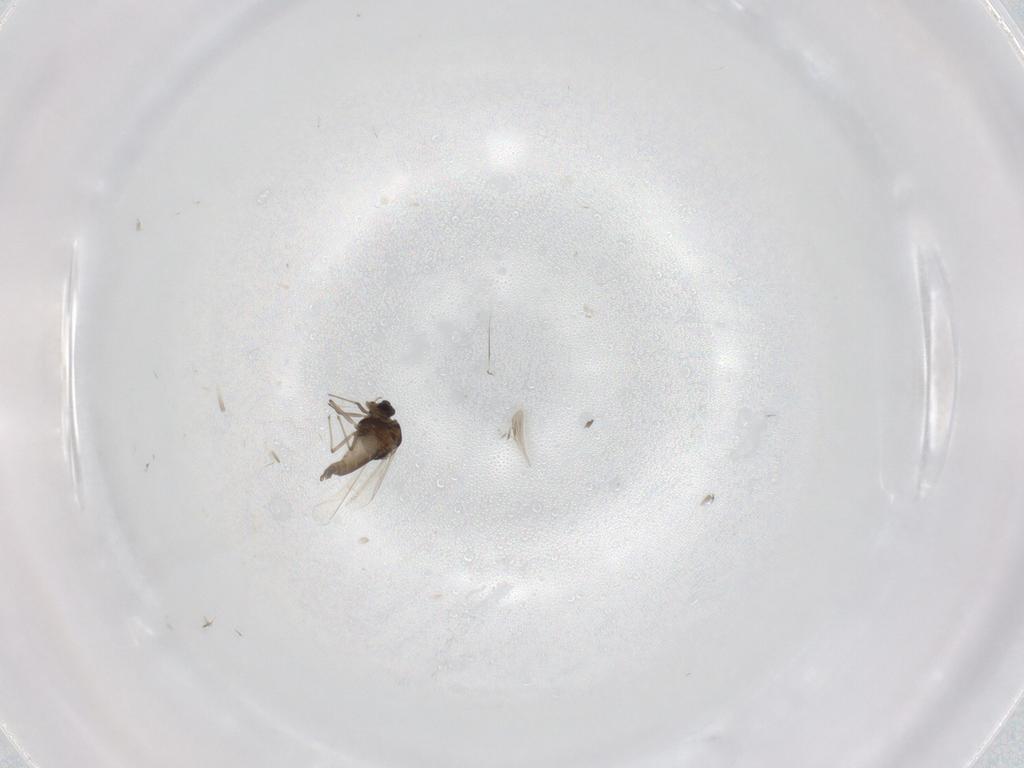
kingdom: Animalia
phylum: Arthropoda
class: Insecta
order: Diptera
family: Chironomidae
